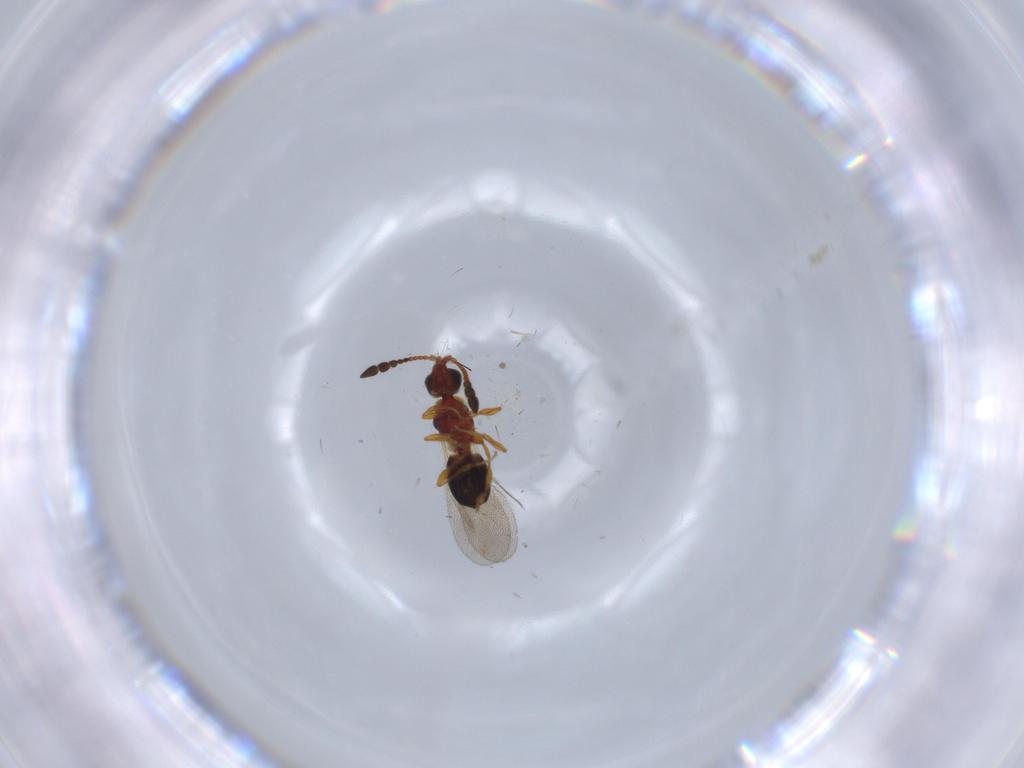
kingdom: Animalia
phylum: Arthropoda
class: Insecta
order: Hymenoptera
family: Diapriidae
